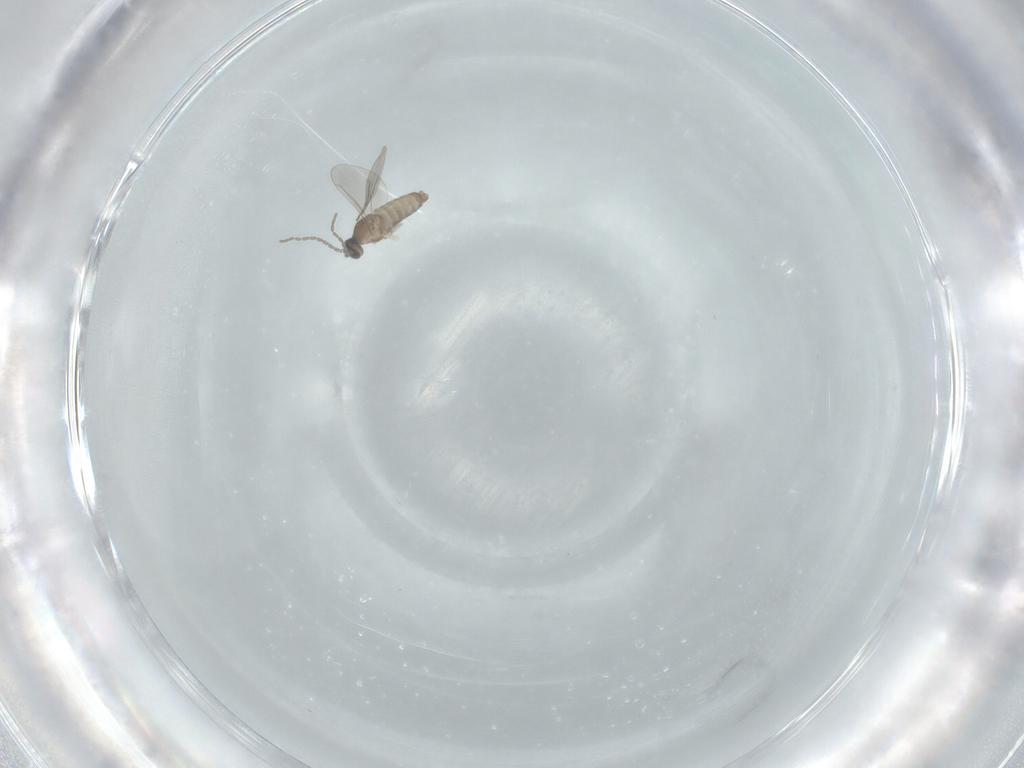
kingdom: Animalia
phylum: Arthropoda
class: Insecta
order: Diptera
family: Cecidomyiidae
